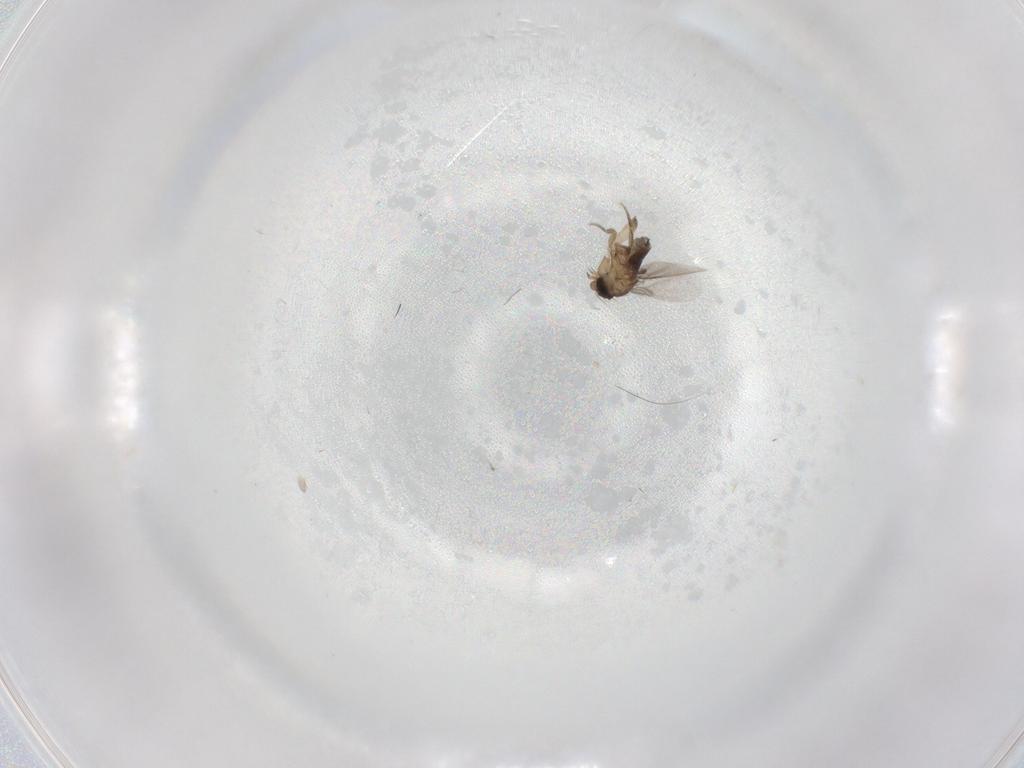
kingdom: Animalia
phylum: Arthropoda
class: Insecta
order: Diptera
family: Phoridae
